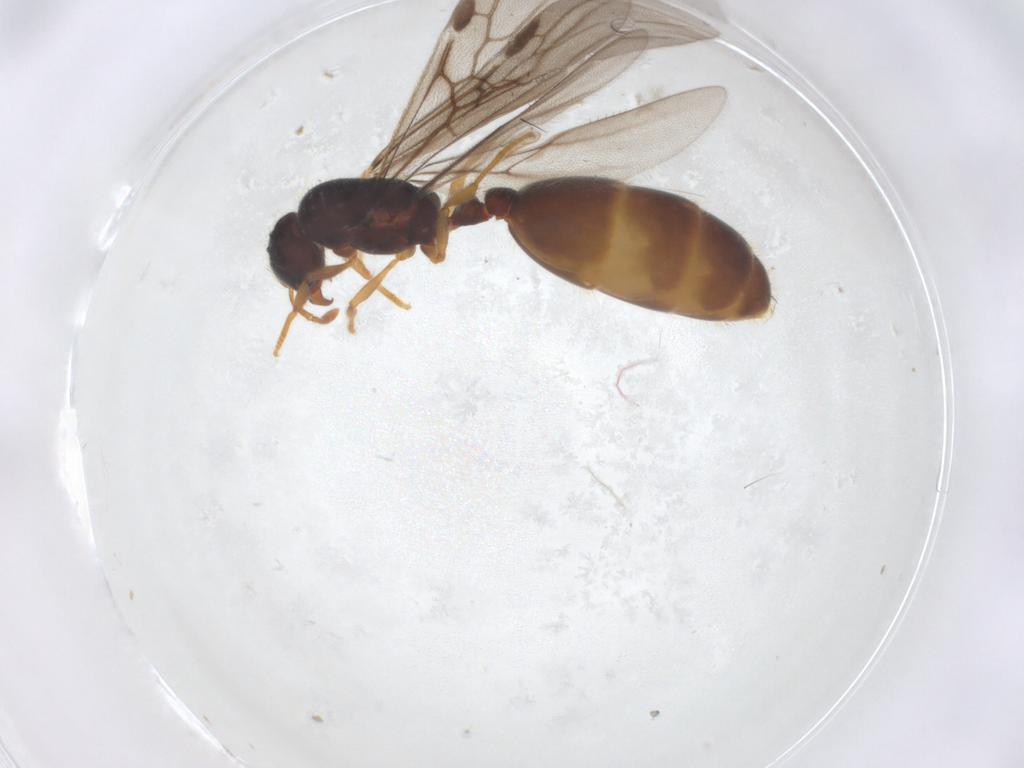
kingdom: Animalia
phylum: Arthropoda
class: Insecta
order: Hymenoptera
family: Formicidae
